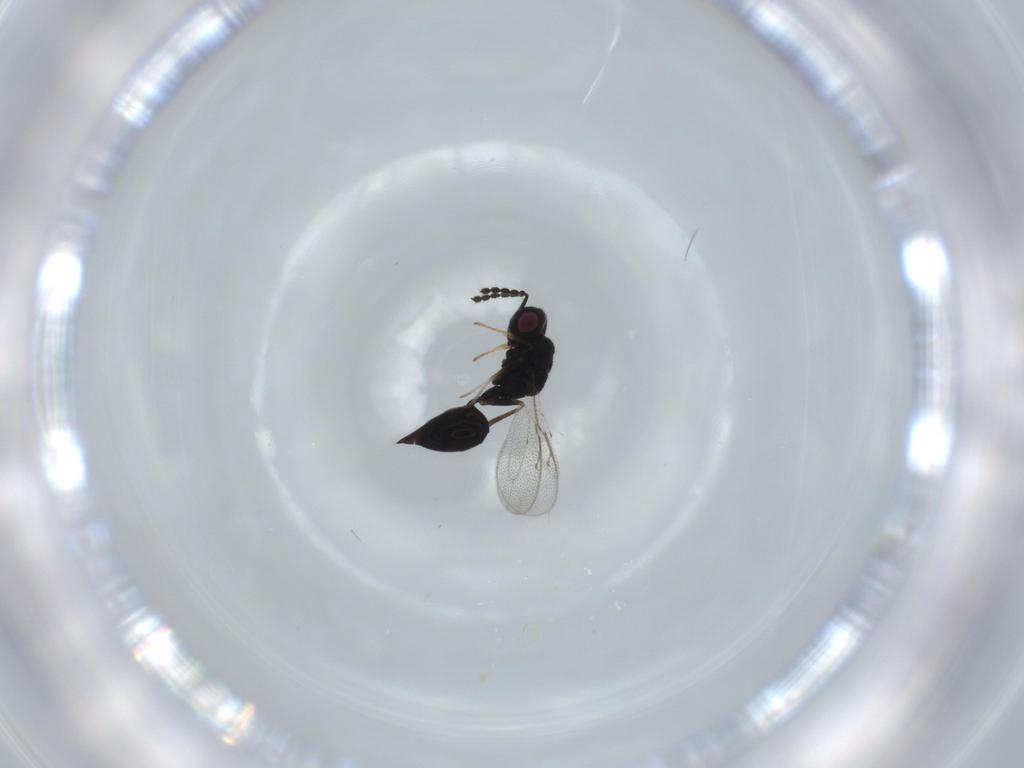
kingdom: Animalia
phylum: Arthropoda
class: Insecta
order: Hymenoptera
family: Eurytomidae
